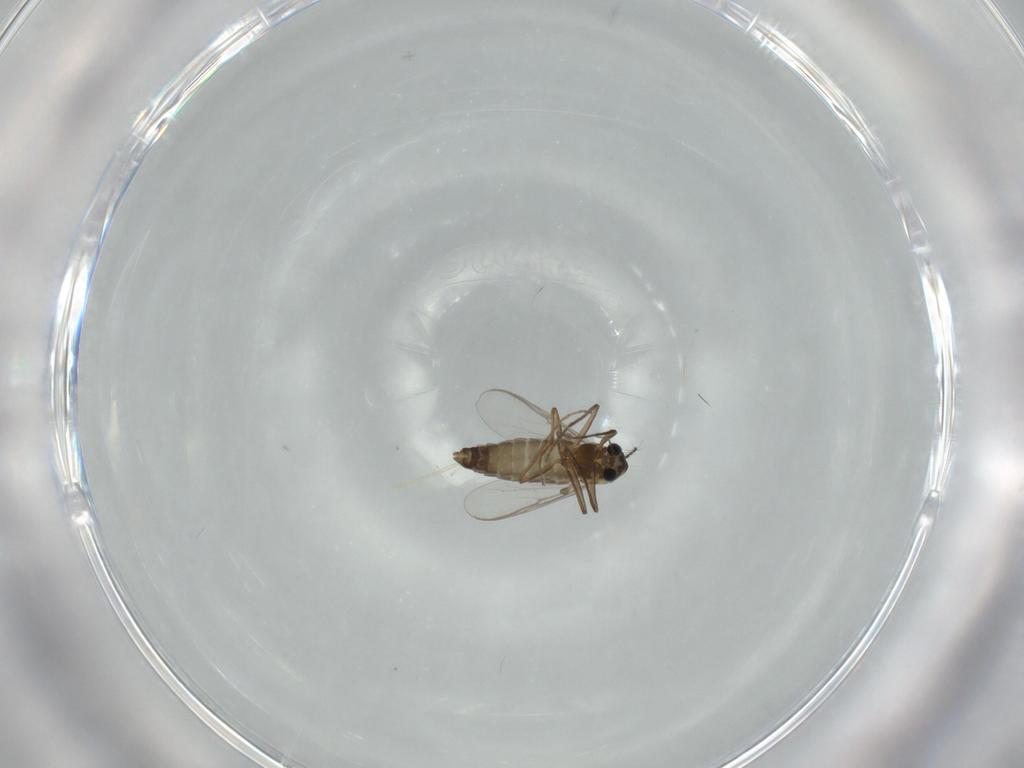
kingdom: Animalia
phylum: Arthropoda
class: Insecta
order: Diptera
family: Chironomidae
